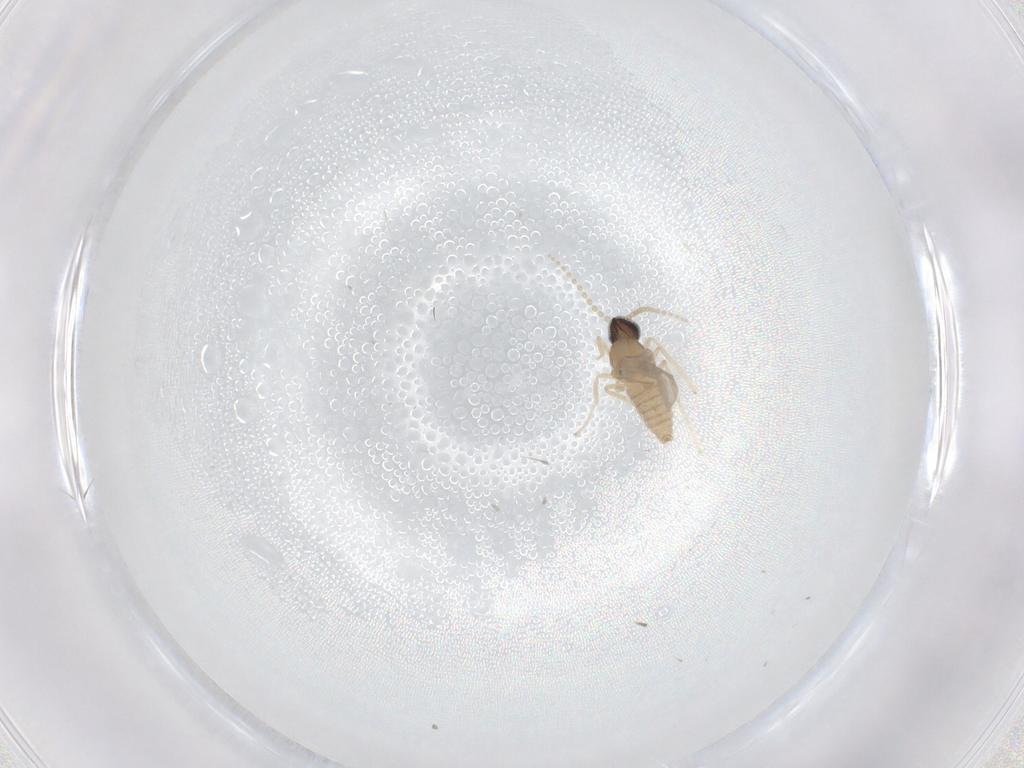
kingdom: Animalia
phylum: Arthropoda
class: Insecta
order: Diptera
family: Cecidomyiidae
